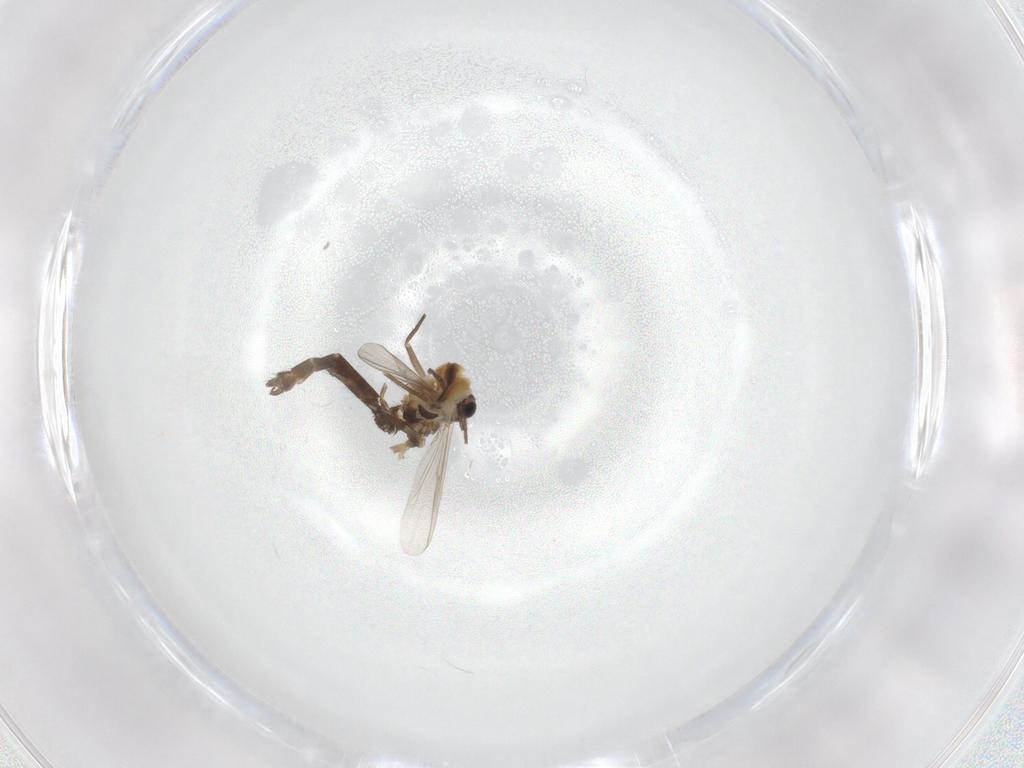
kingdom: Animalia
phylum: Arthropoda
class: Insecta
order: Diptera
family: Chironomidae
